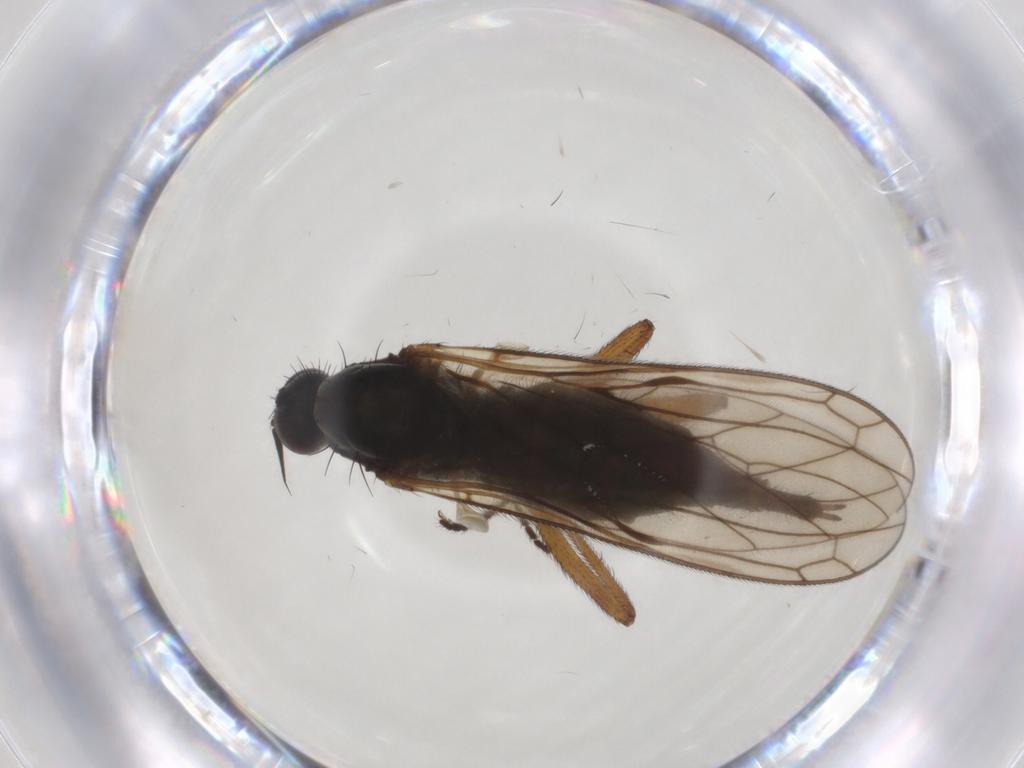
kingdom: Animalia
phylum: Arthropoda
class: Insecta
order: Diptera
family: Chironomidae
